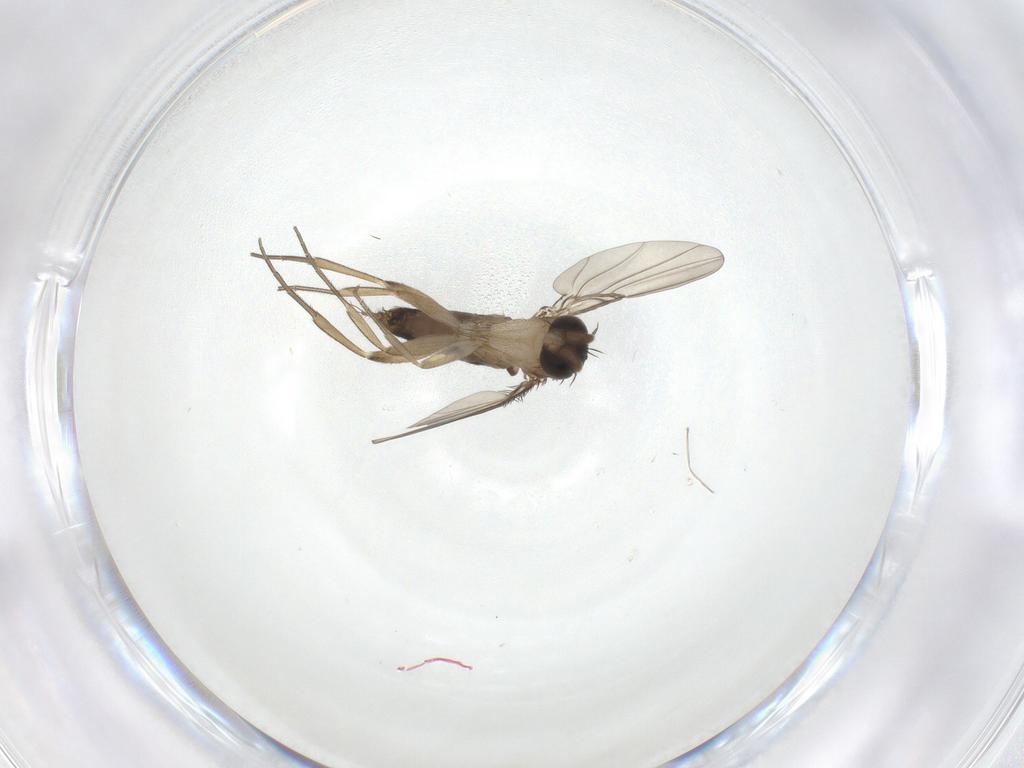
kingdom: Animalia
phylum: Arthropoda
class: Insecta
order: Diptera
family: Phoridae
